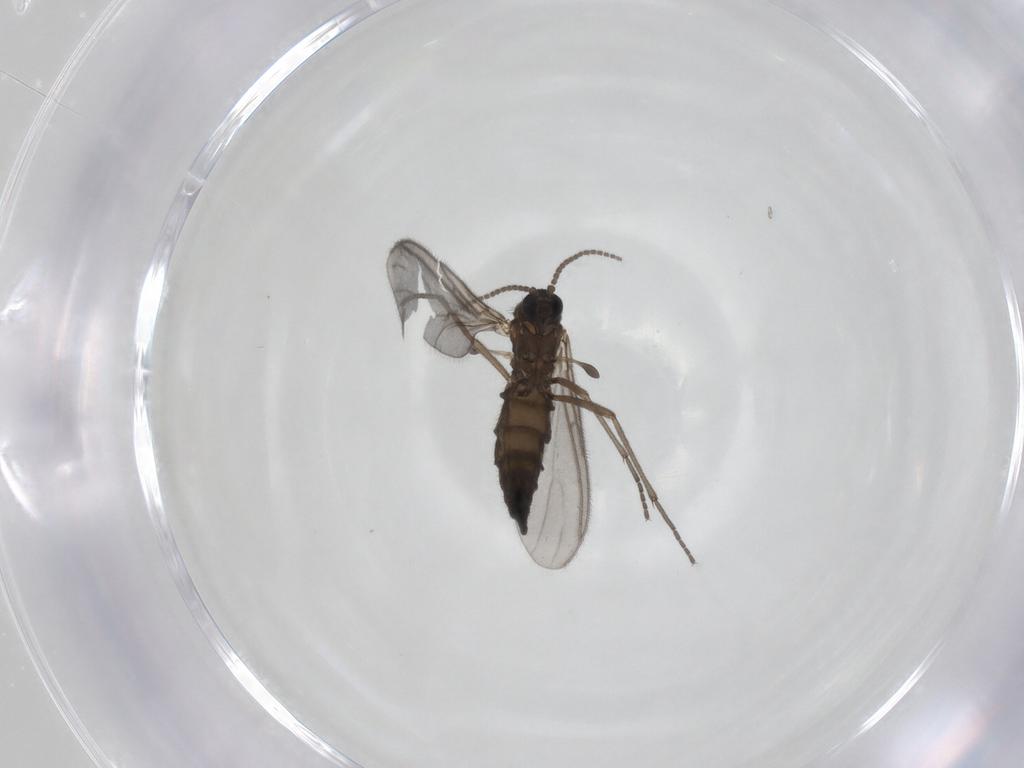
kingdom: Animalia
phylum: Arthropoda
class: Insecta
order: Diptera
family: Sciaridae
